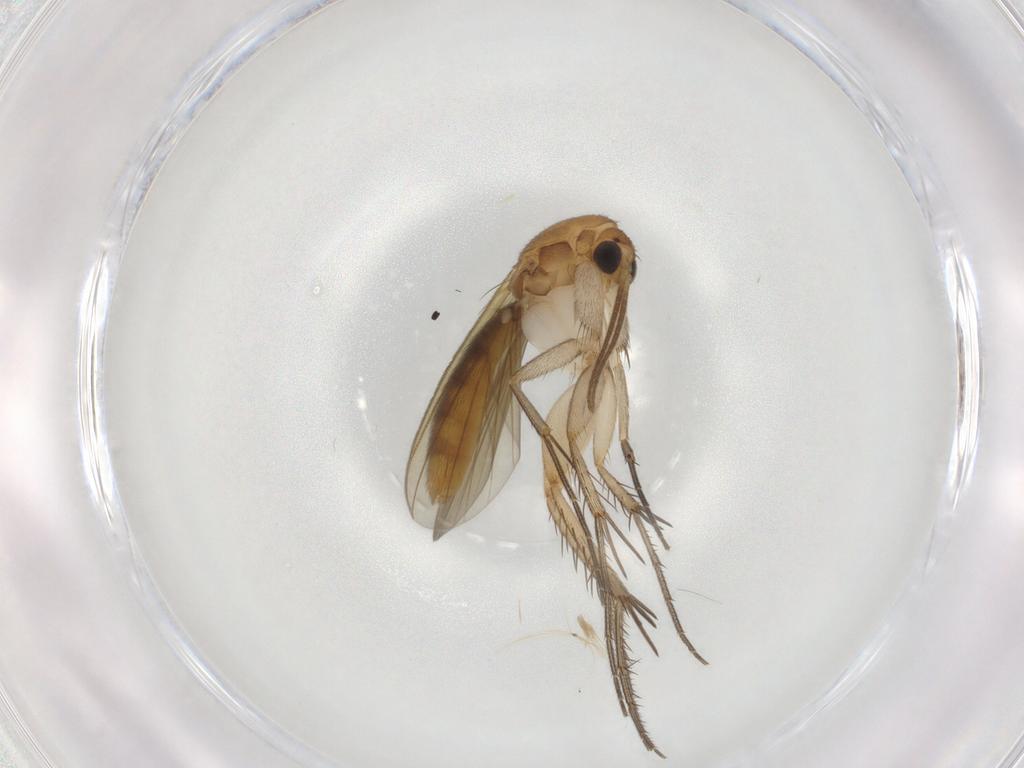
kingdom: Animalia
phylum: Arthropoda
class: Insecta
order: Diptera
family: Mycetophilidae
